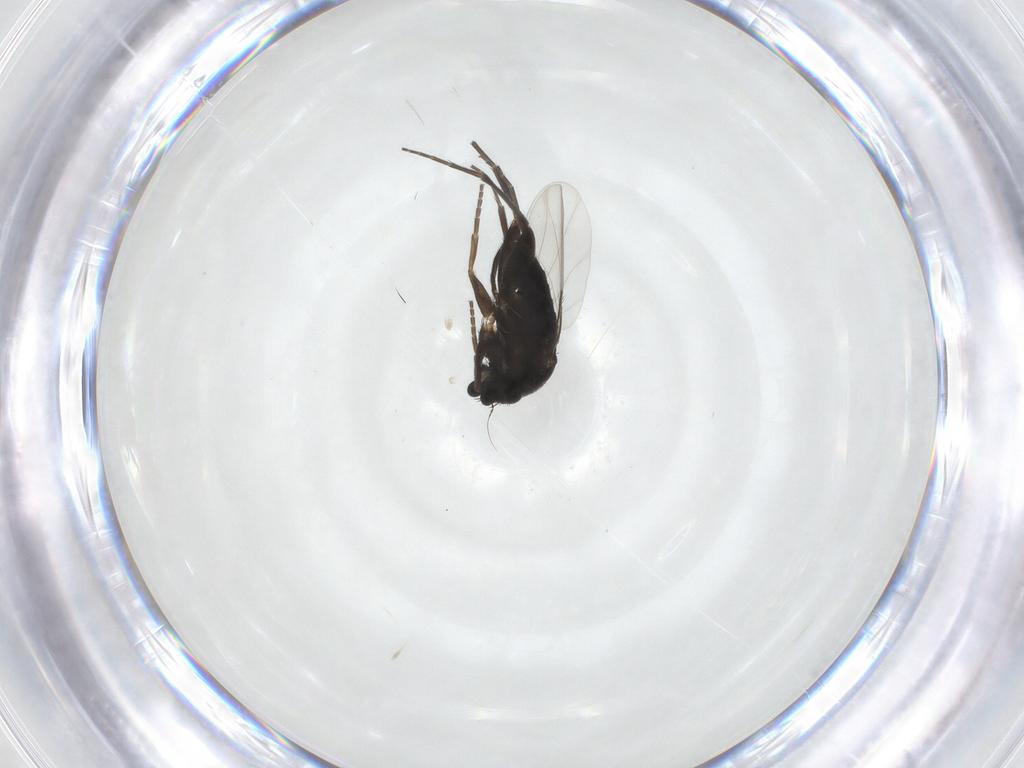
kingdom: Animalia
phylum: Arthropoda
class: Insecta
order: Diptera
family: Phoridae
